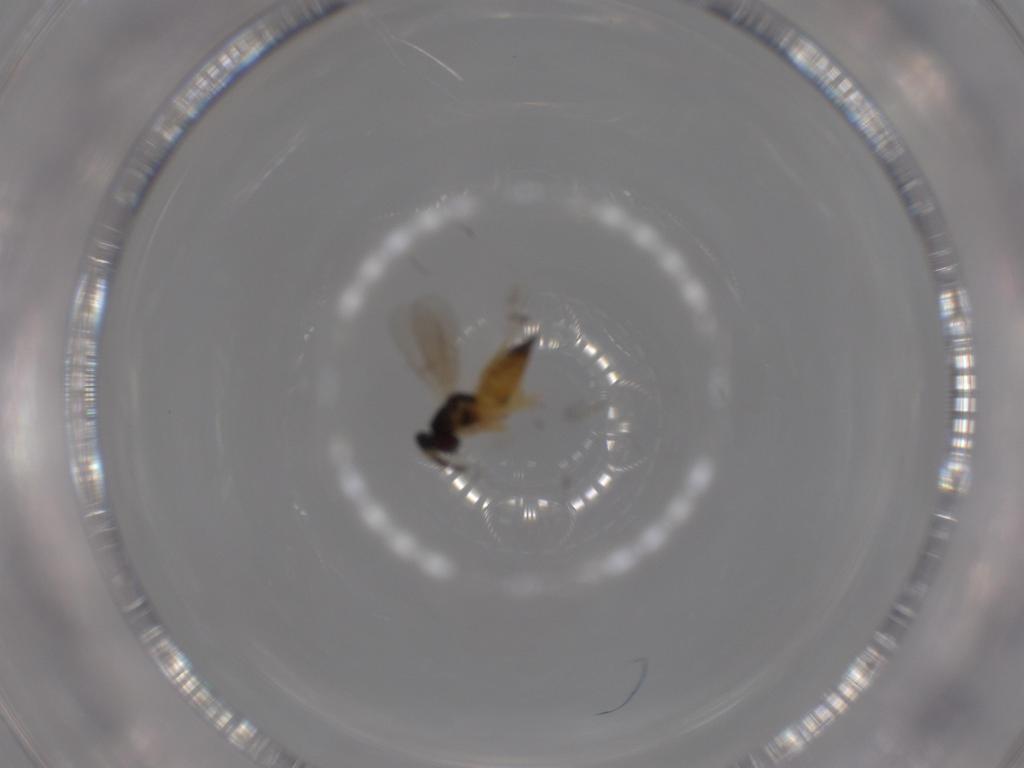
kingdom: Animalia
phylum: Arthropoda
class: Insecta
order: Hymenoptera
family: Eulophidae
